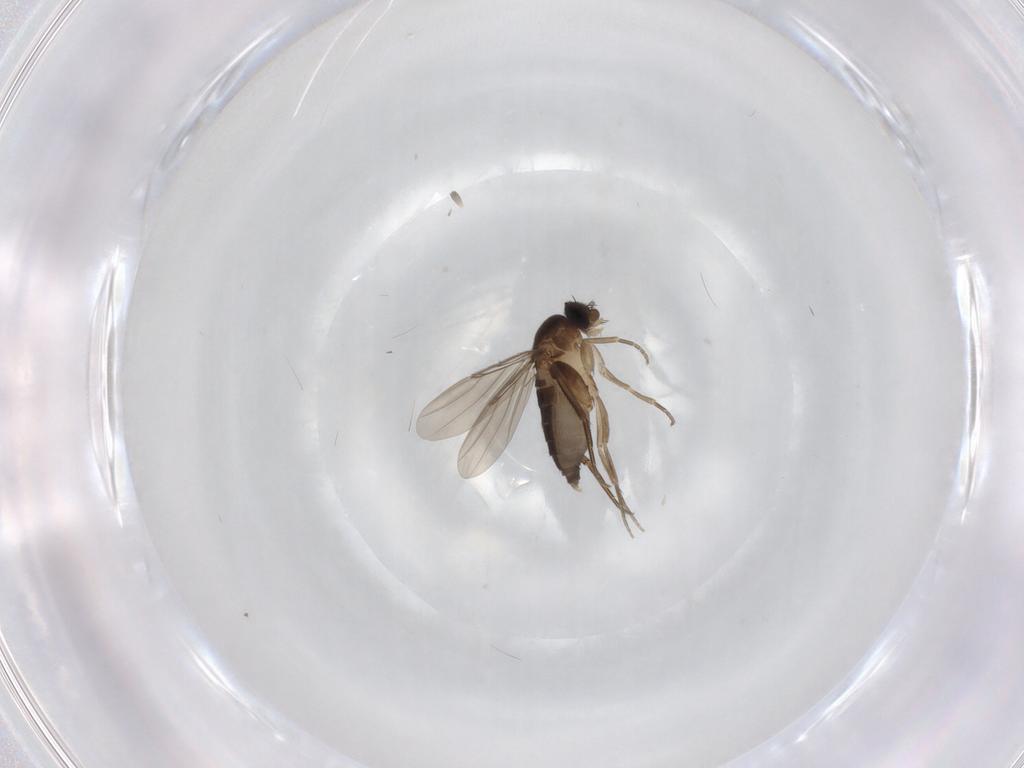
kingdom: Animalia
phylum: Arthropoda
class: Insecta
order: Diptera
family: Phoridae
